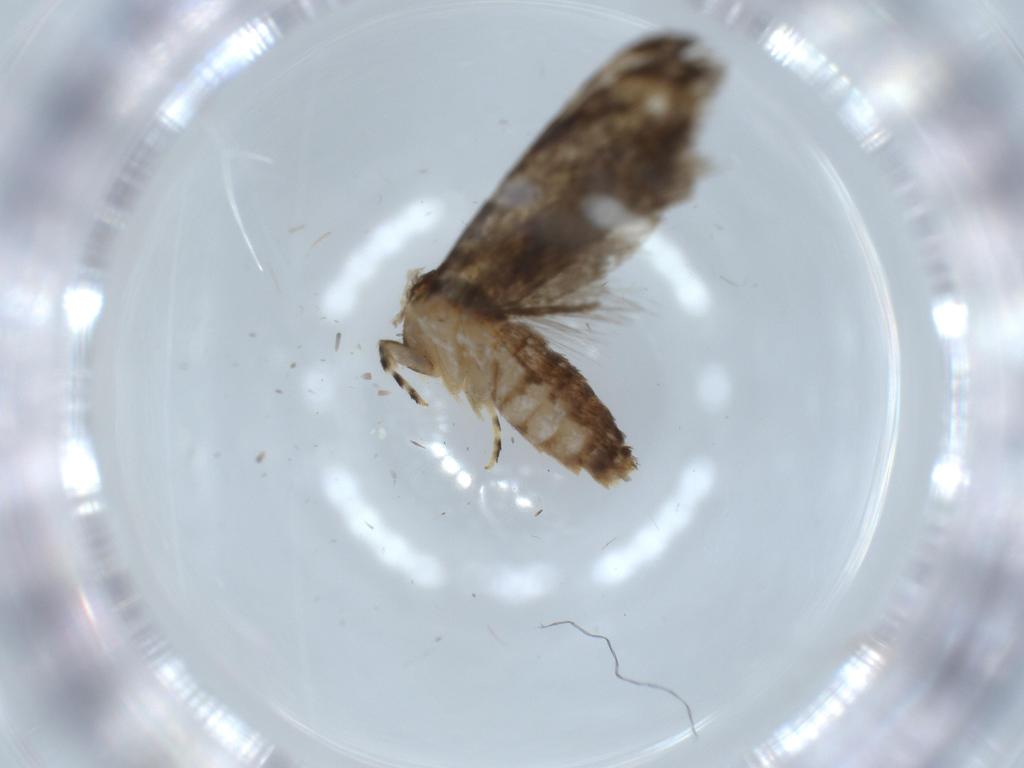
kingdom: Animalia
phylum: Arthropoda
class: Insecta
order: Lepidoptera
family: Tineidae
